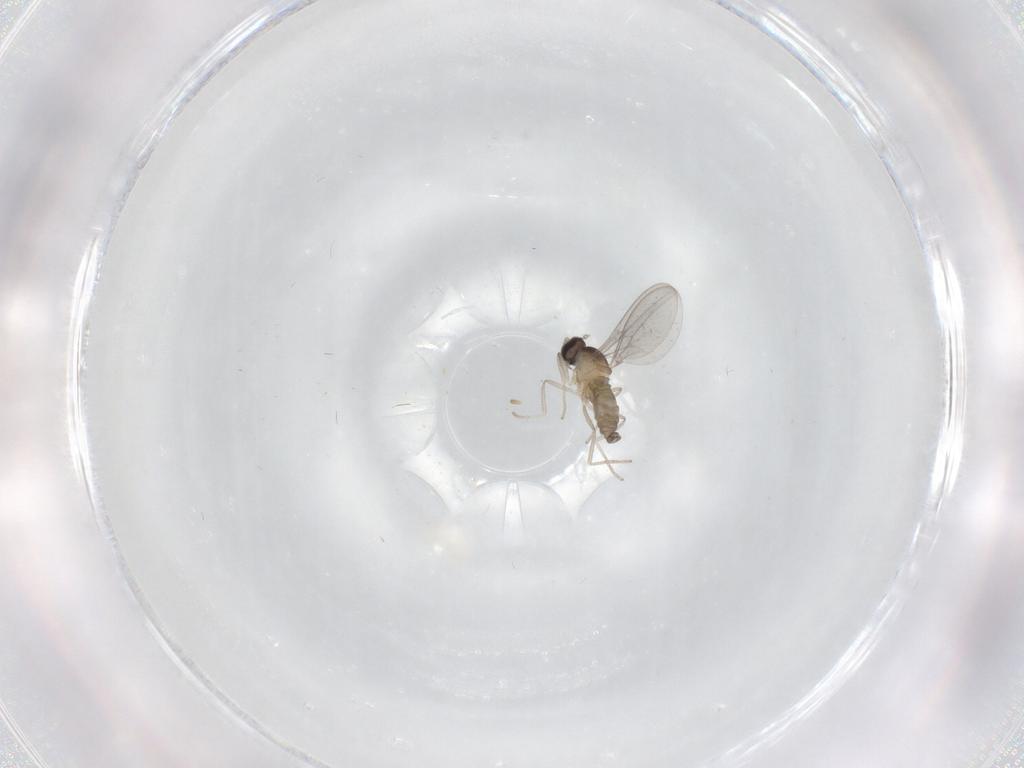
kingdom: Animalia
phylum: Arthropoda
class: Insecta
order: Diptera
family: Cecidomyiidae
